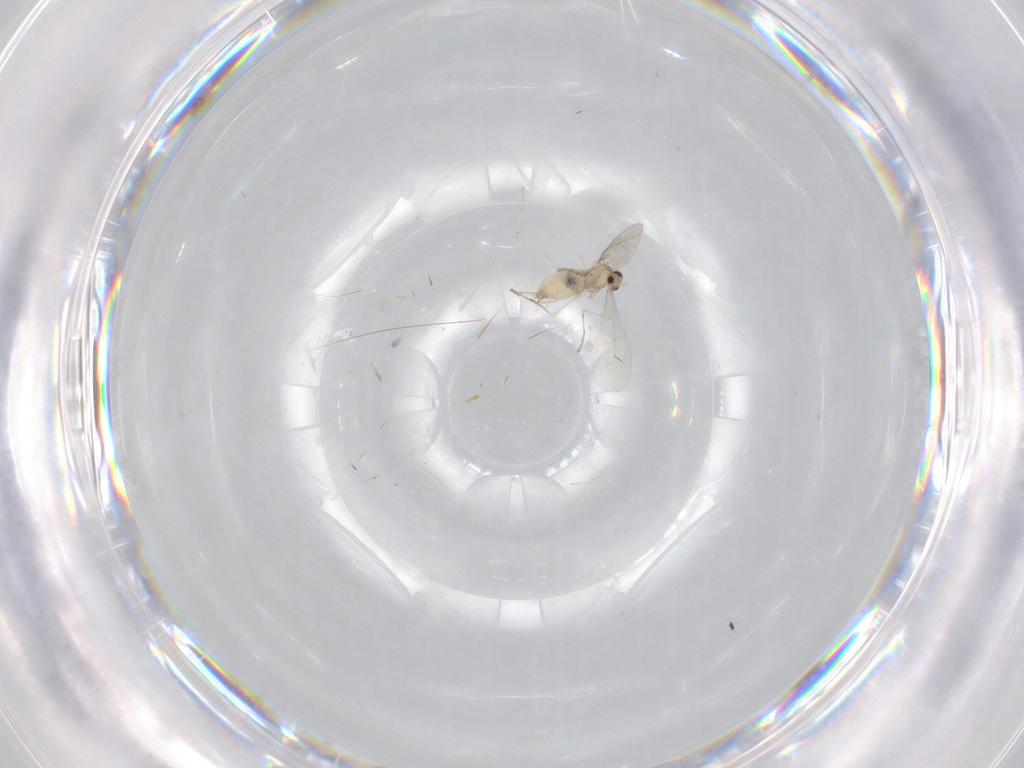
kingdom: Animalia
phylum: Arthropoda
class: Insecta
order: Diptera
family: Cecidomyiidae
